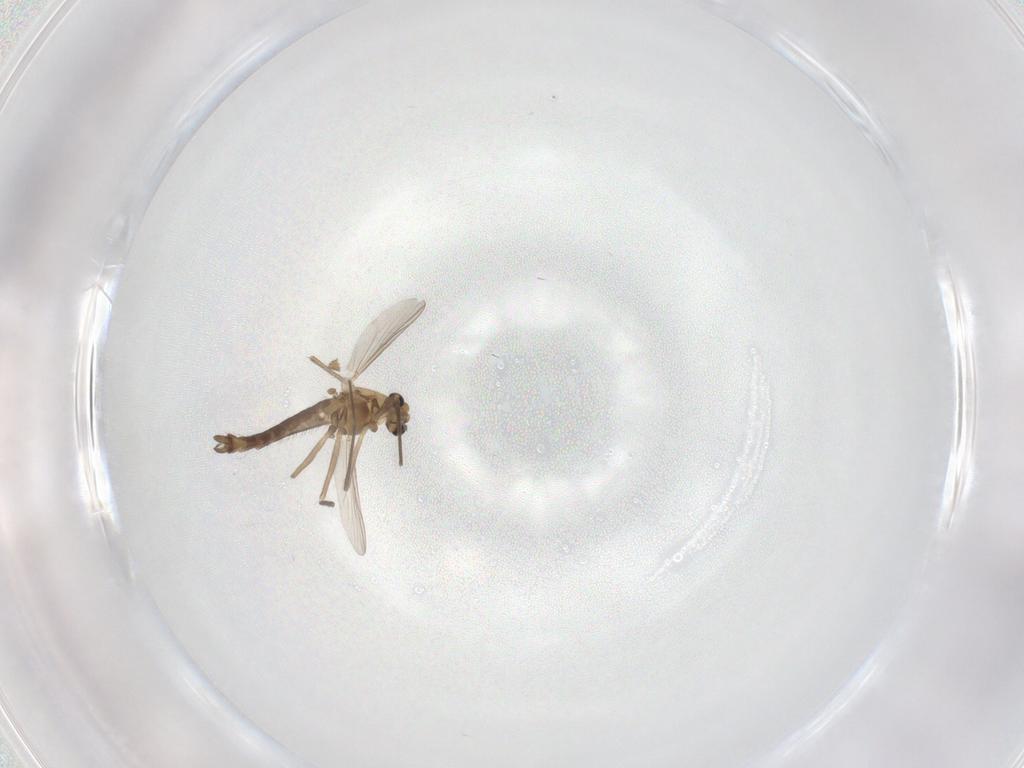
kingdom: Animalia
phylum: Arthropoda
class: Insecta
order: Diptera
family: Chironomidae
